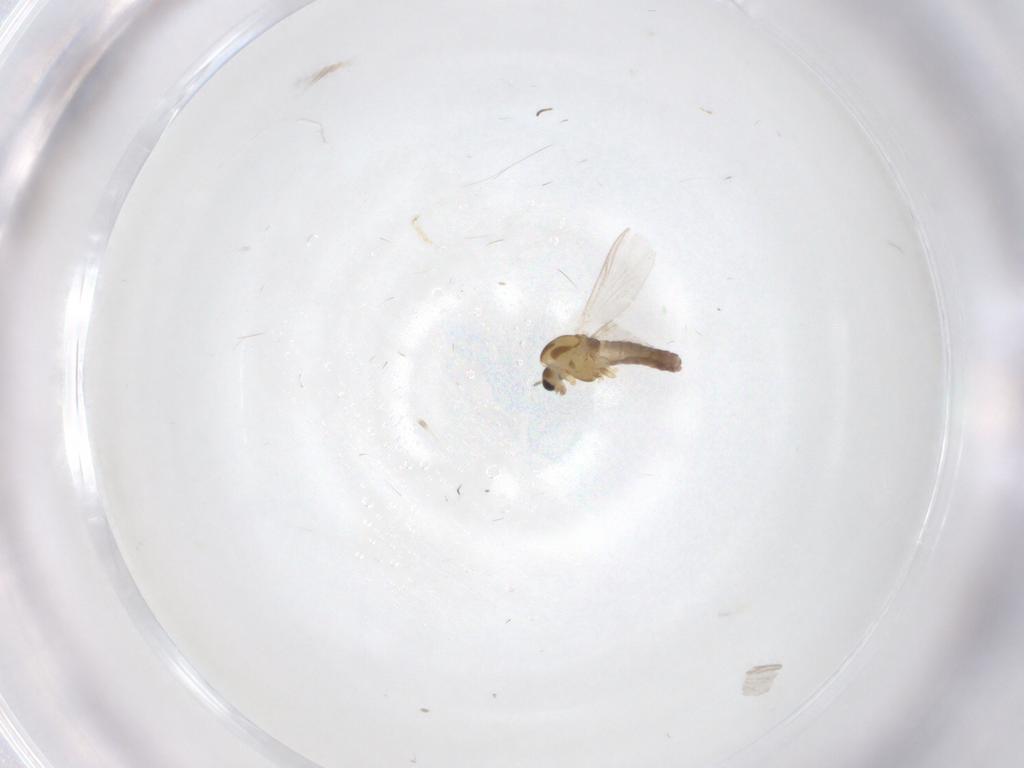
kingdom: Animalia
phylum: Arthropoda
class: Insecta
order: Diptera
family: Chironomidae
